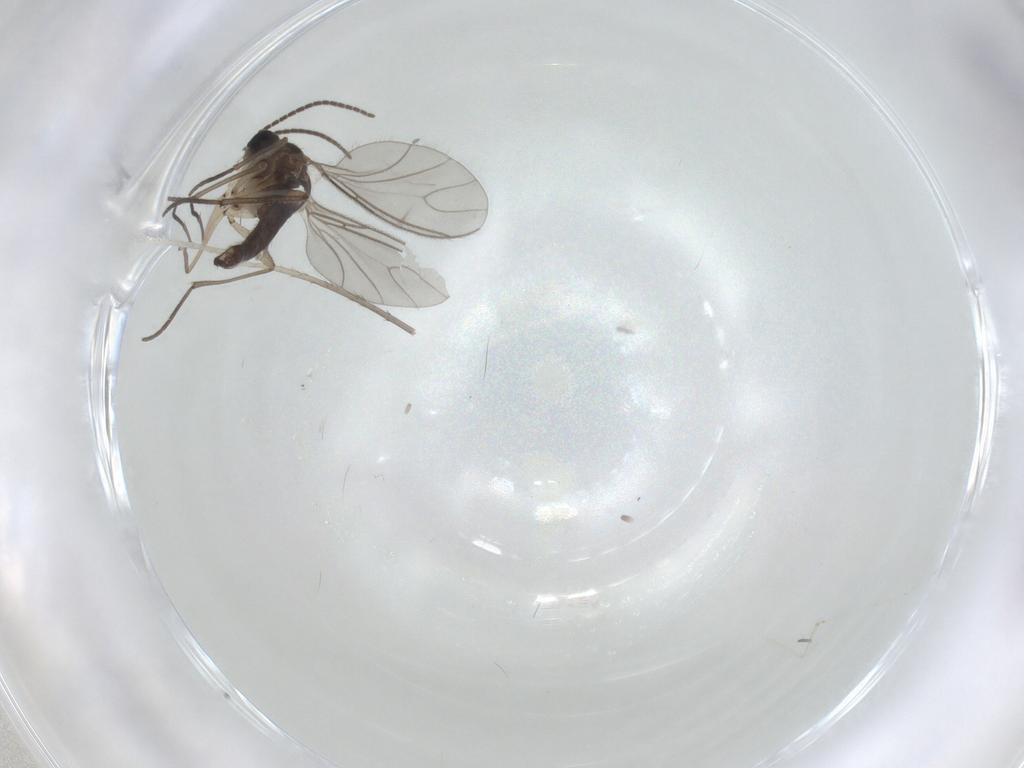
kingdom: Animalia
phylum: Arthropoda
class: Insecta
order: Diptera
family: Sciaridae
